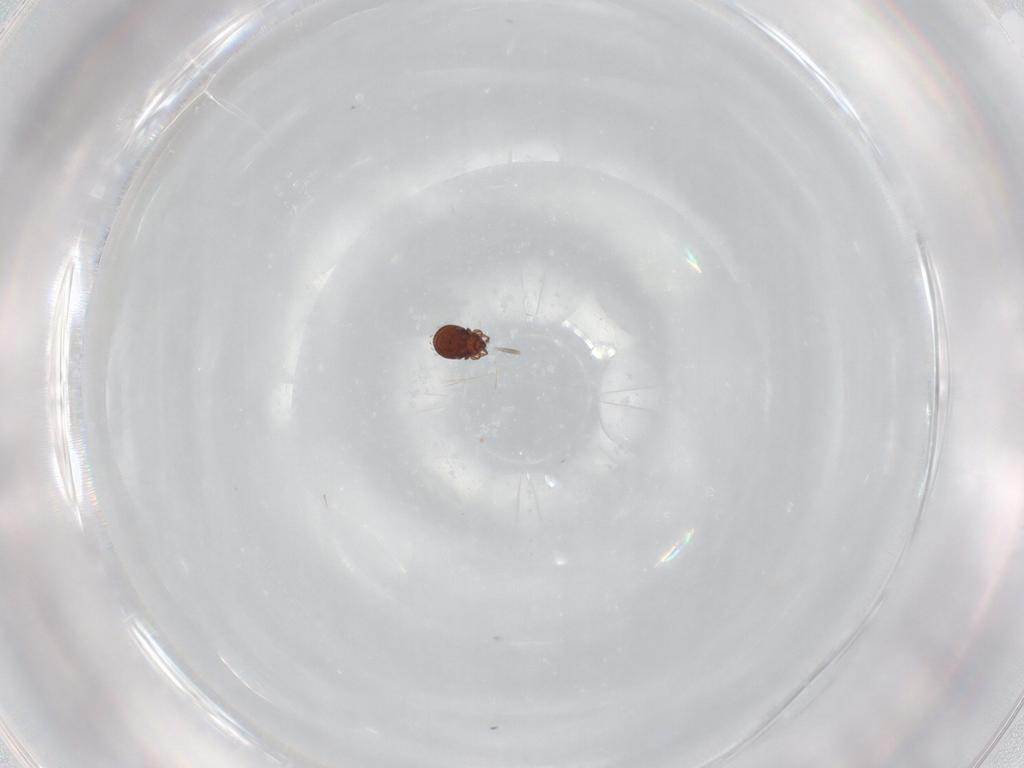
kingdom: Animalia
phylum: Arthropoda
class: Arachnida
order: Sarcoptiformes
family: Scheloribatidae
